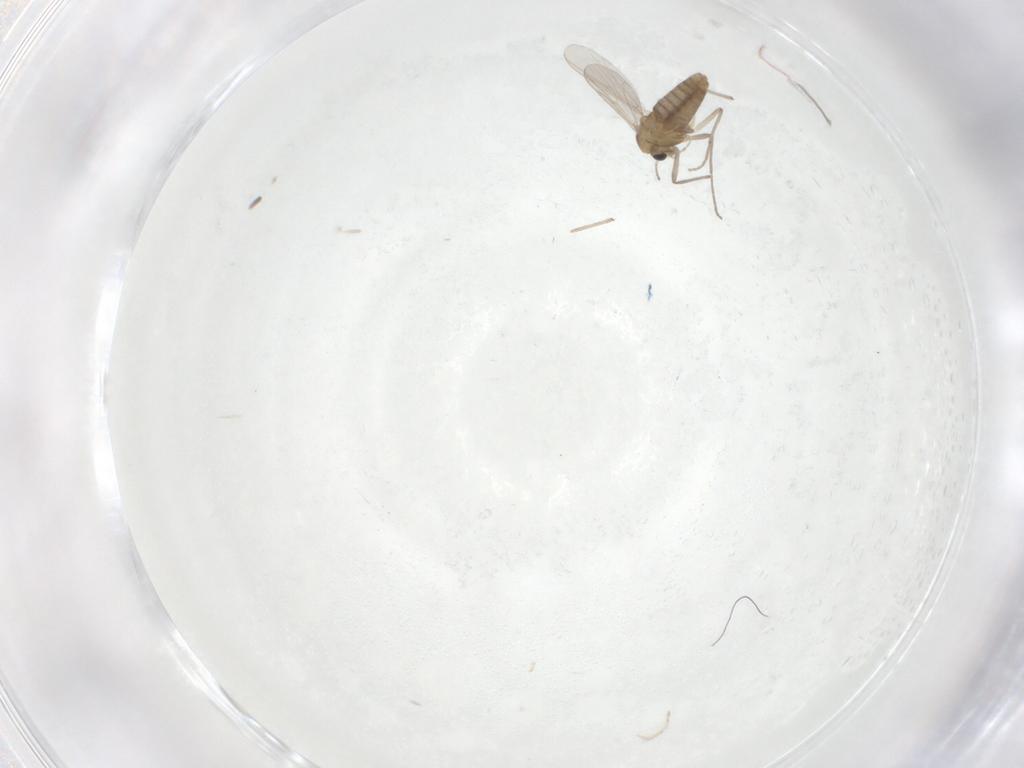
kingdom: Animalia
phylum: Arthropoda
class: Insecta
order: Diptera
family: Chironomidae
